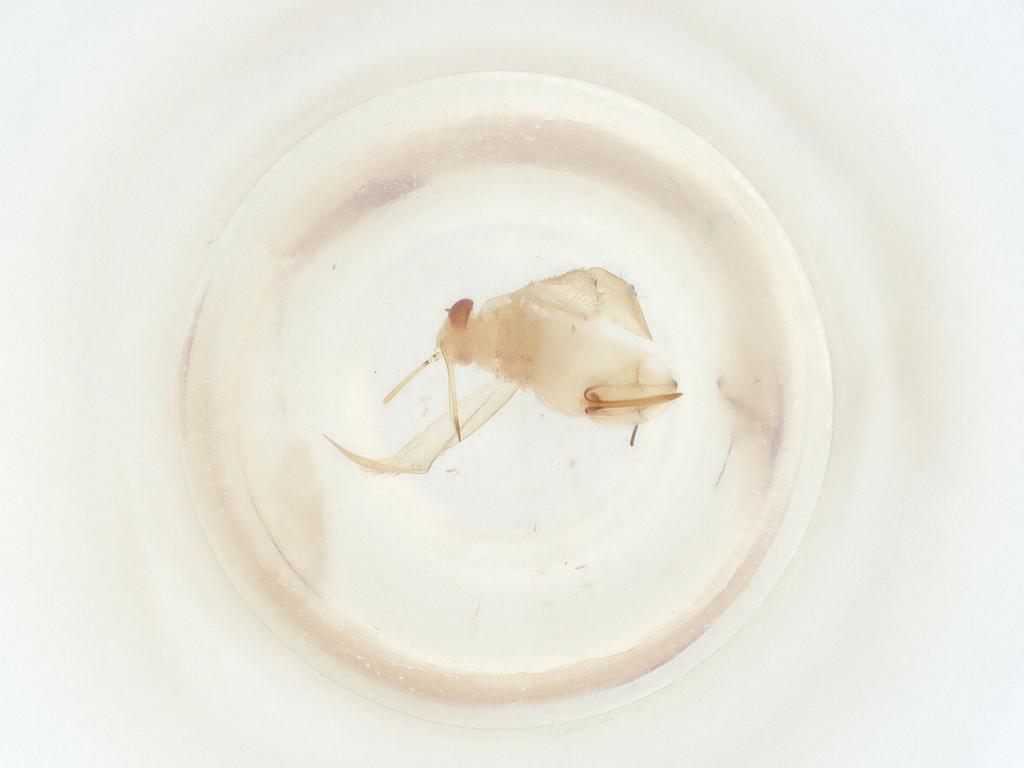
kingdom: Animalia
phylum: Arthropoda
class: Insecta
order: Hemiptera
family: Miridae
